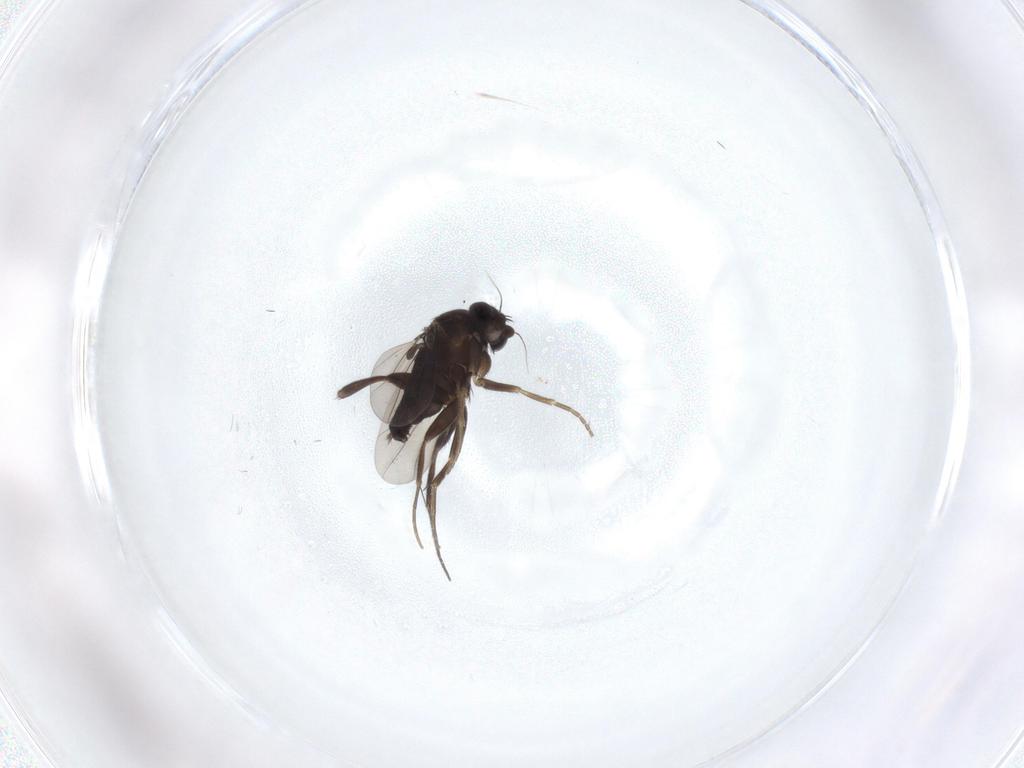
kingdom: Animalia
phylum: Arthropoda
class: Insecta
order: Diptera
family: Phoridae
